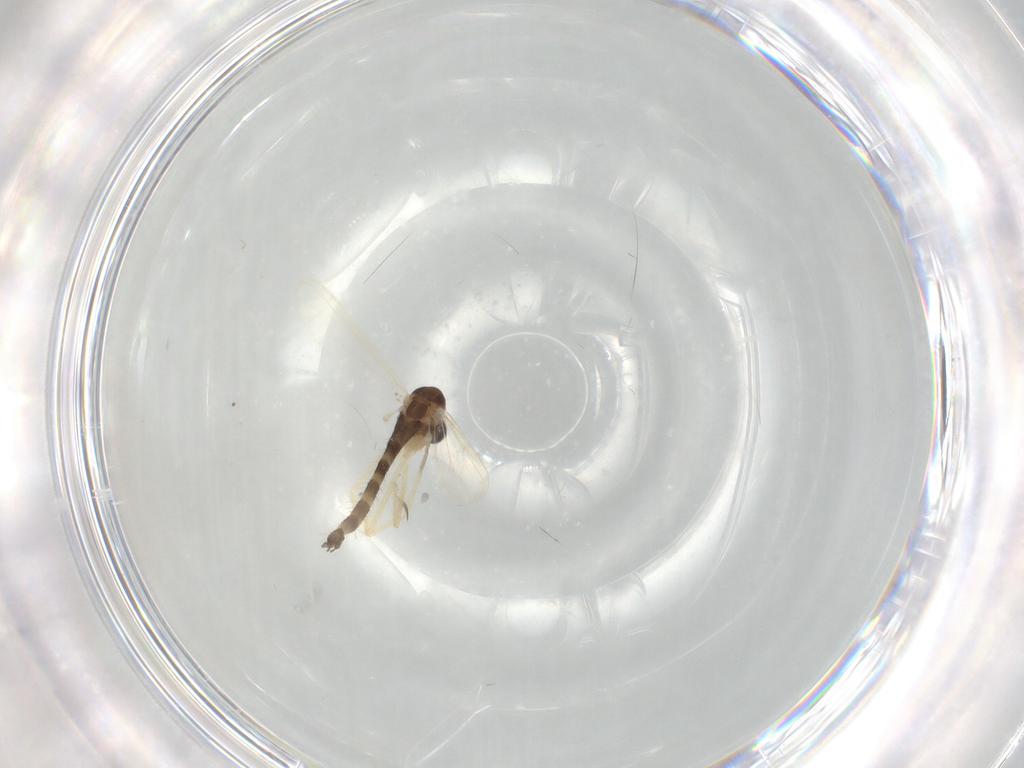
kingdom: Animalia
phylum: Arthropoda
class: Insecta
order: Diptera
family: Chironomidae
